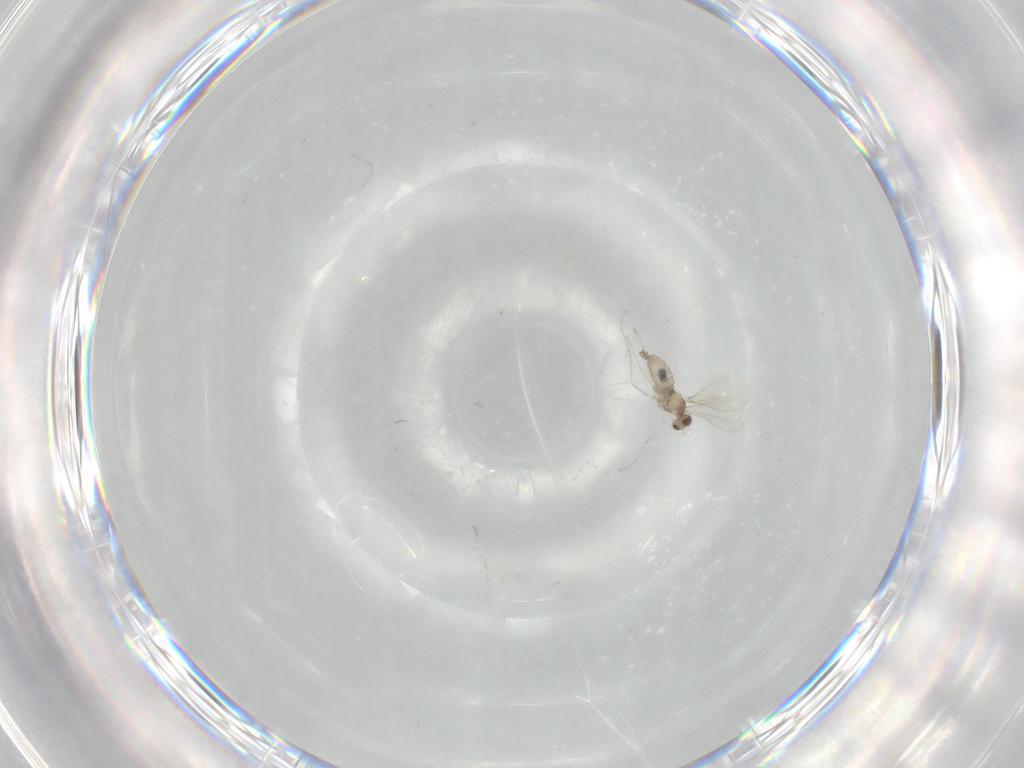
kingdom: Animalia
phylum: Arthropoda
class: Insecta
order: Diptera
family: Cecidomyiidae
